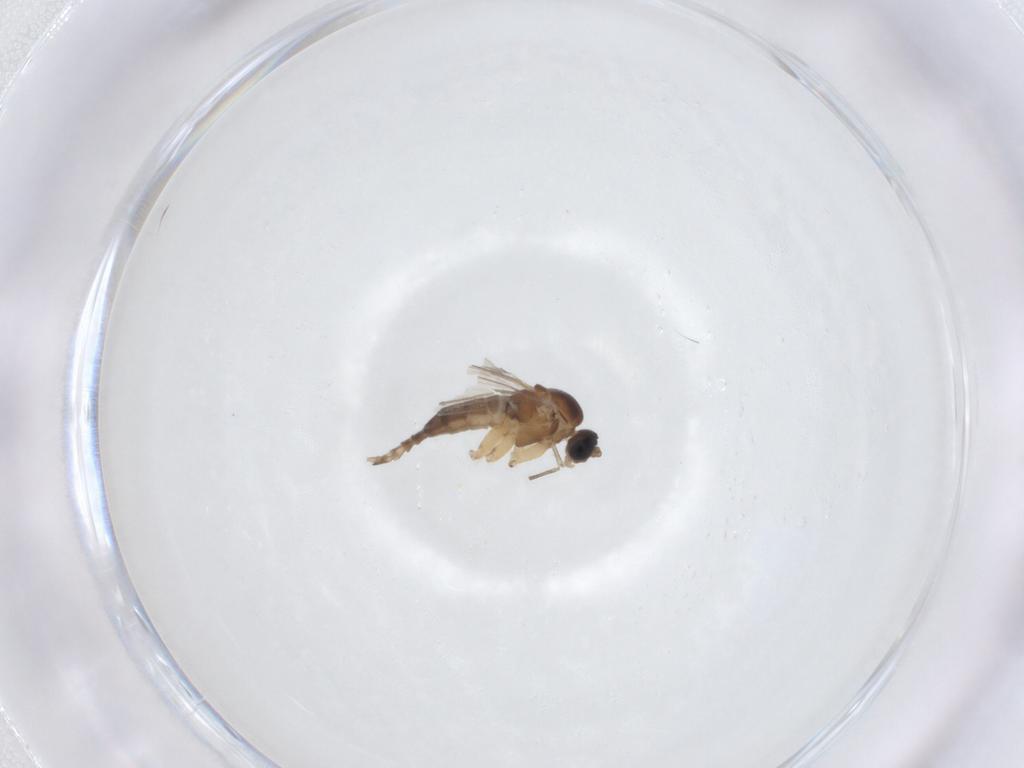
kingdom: Animalia
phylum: Arthropoda
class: Insecta
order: Diptera
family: Sciaridae
